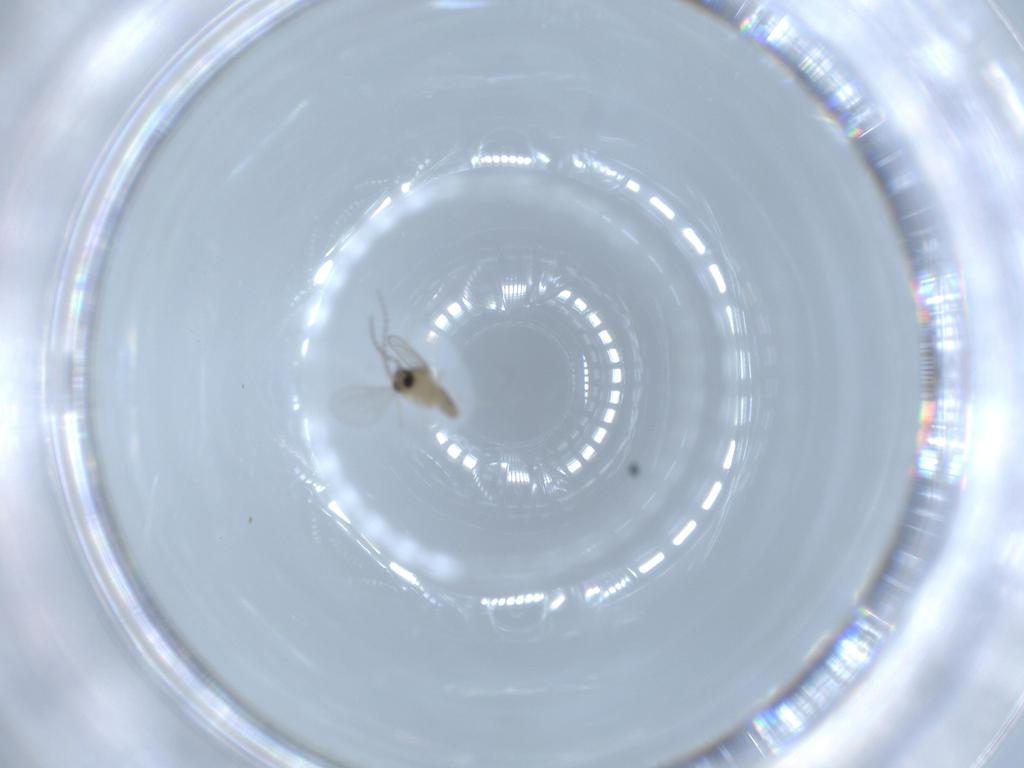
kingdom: Animalia
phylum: Arthropoda
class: Insecta
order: Diptera
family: Cecidomyiidae
